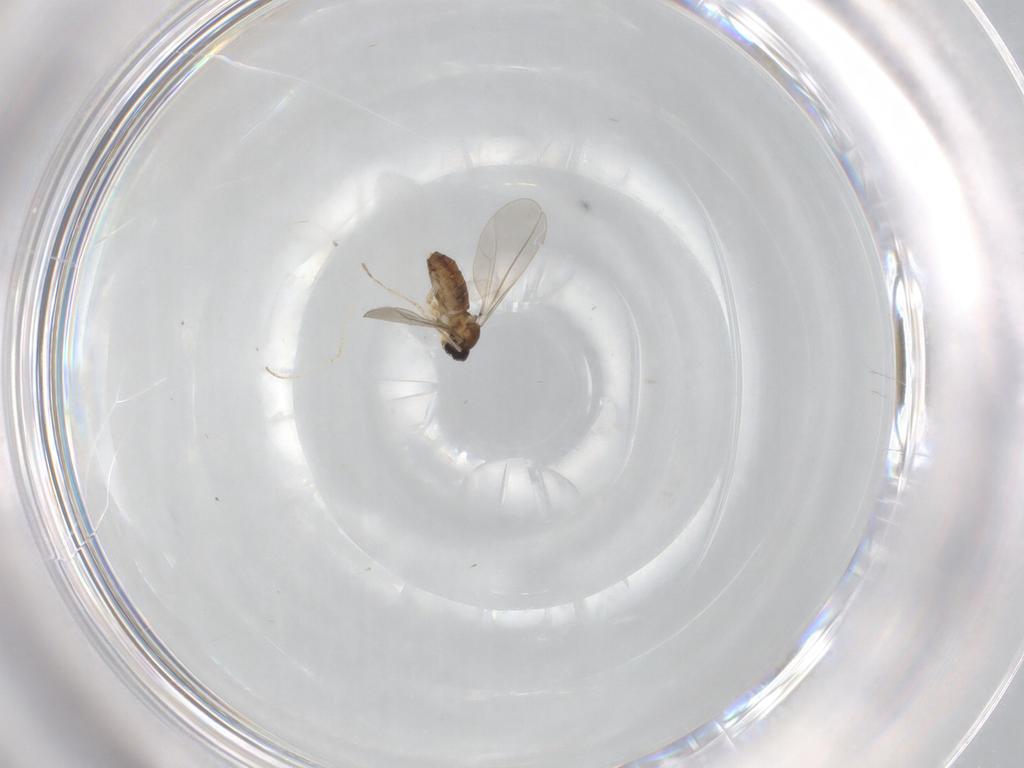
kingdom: Animalia
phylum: Arthropoda
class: Insecta
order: Diptera
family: Cecidomyiidae
